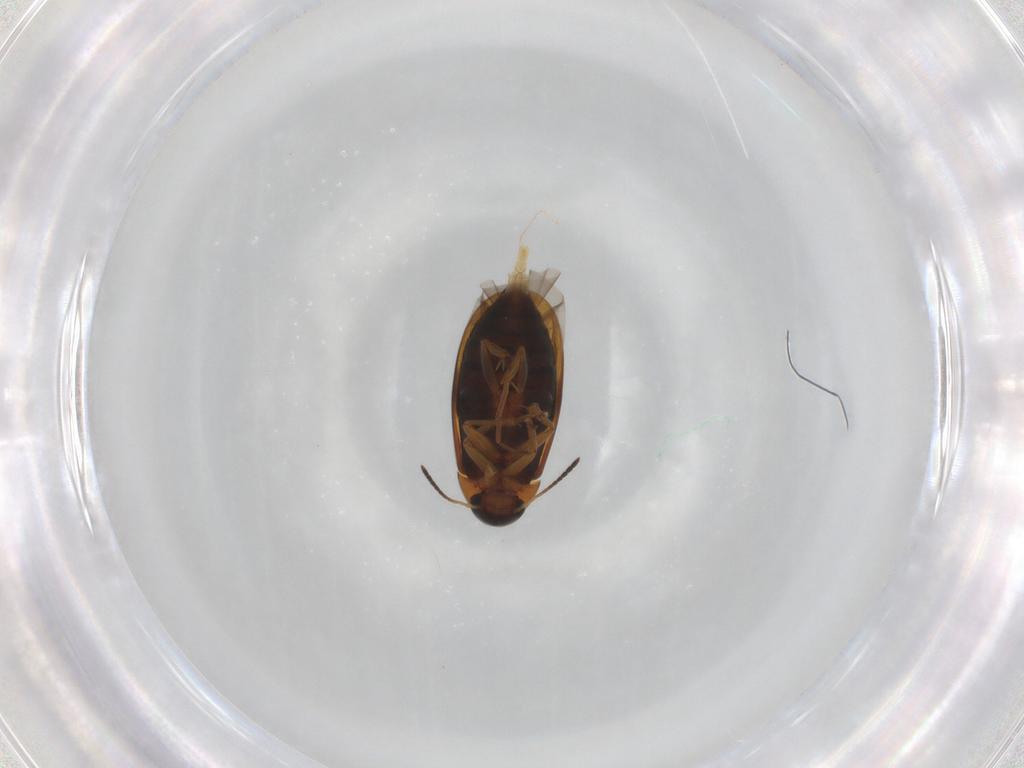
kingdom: Animalia
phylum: Arthropoda
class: Insecta
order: Coleoptera
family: Scraptiidae
